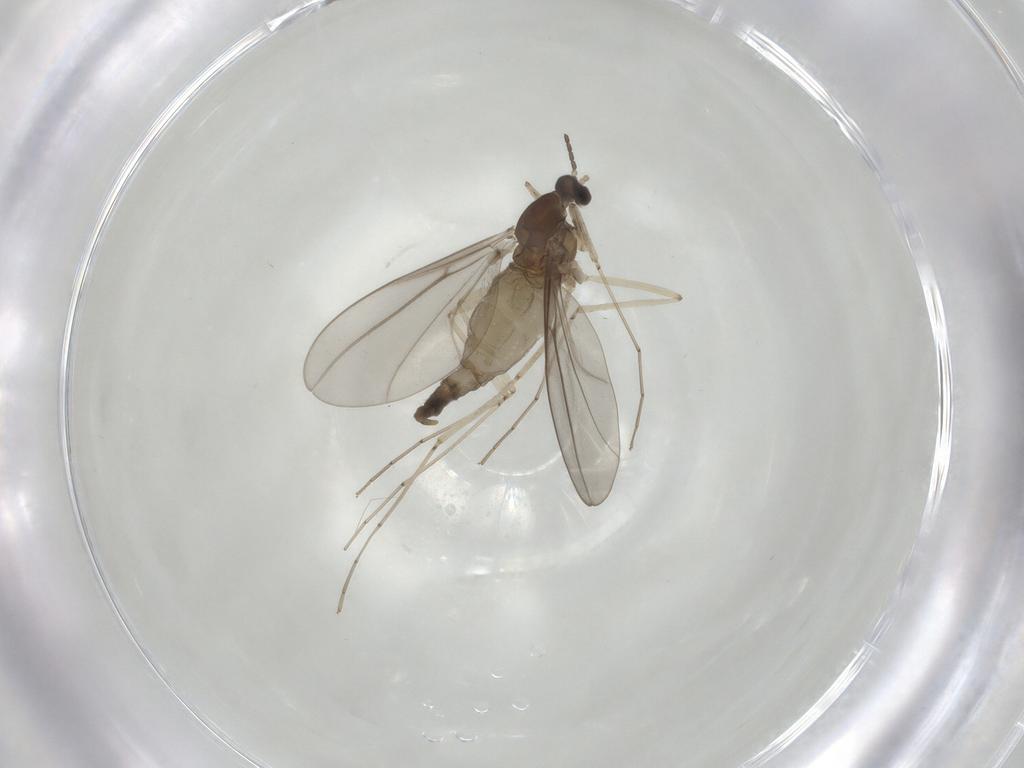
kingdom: Animalia
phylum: Arthropoda
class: Insecta
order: Diptera
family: Cecidomyiidae
